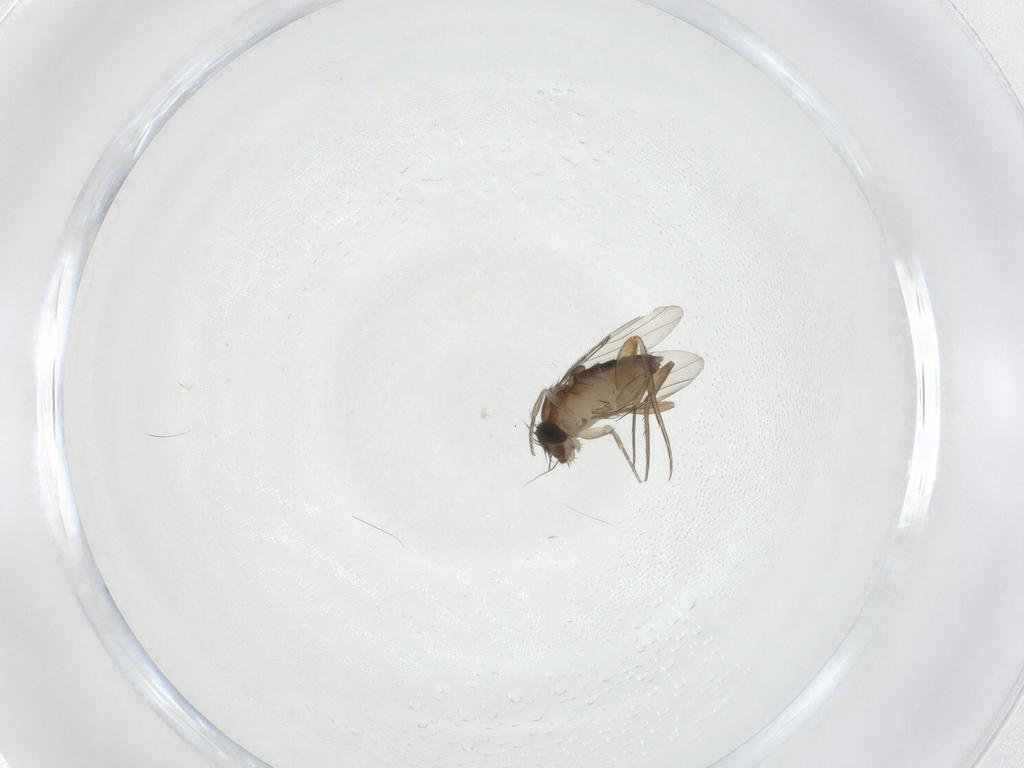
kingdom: Animalia
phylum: Arthropoda
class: Insecta
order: Diptera
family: Phoridae
